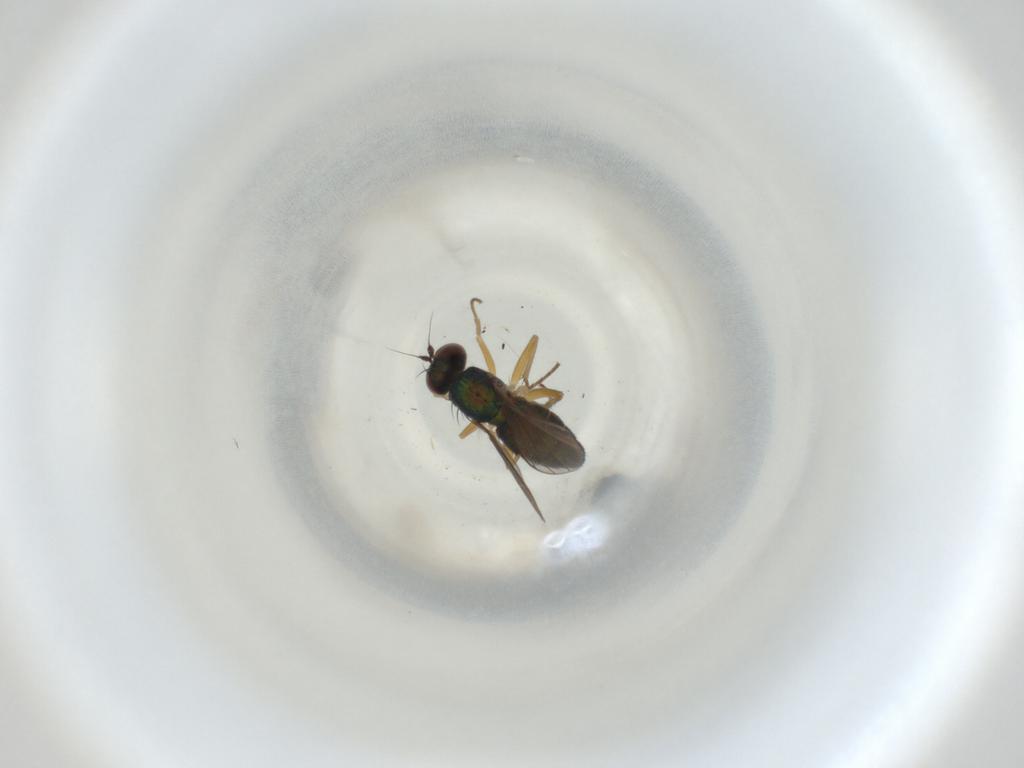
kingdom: Animalia
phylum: Arthropoda
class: Insecta
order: Diptera
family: Dolichopodidae
